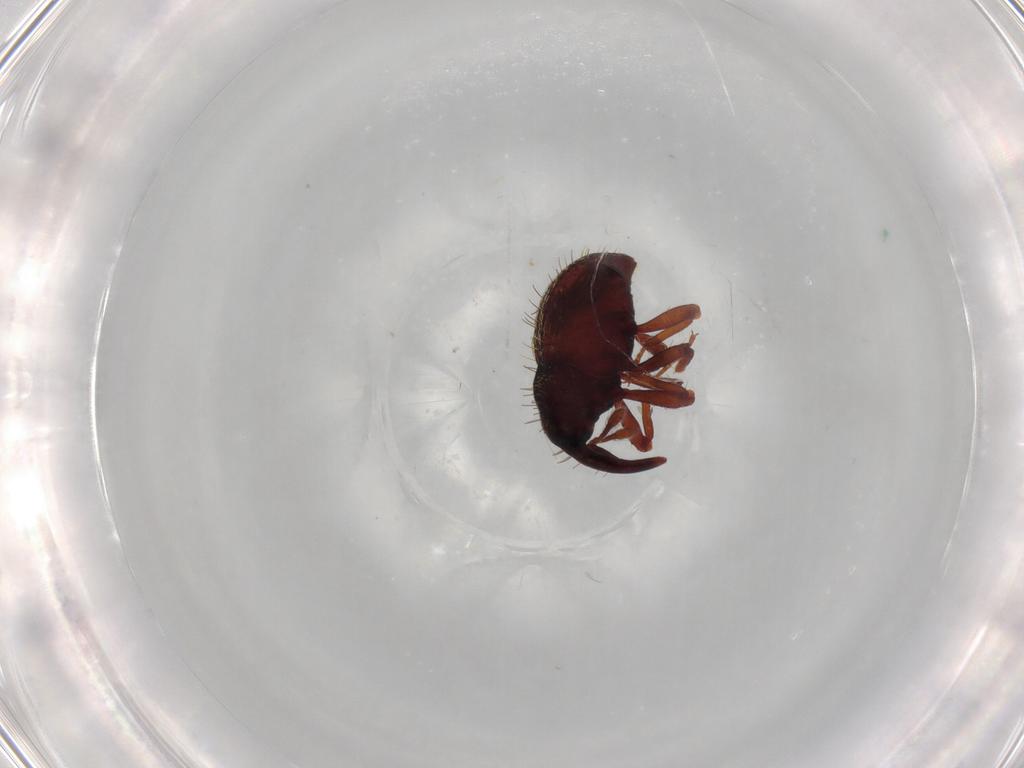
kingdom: Animalia
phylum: Arthropoda
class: Insecta
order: Coleoptera
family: Curculionidae
